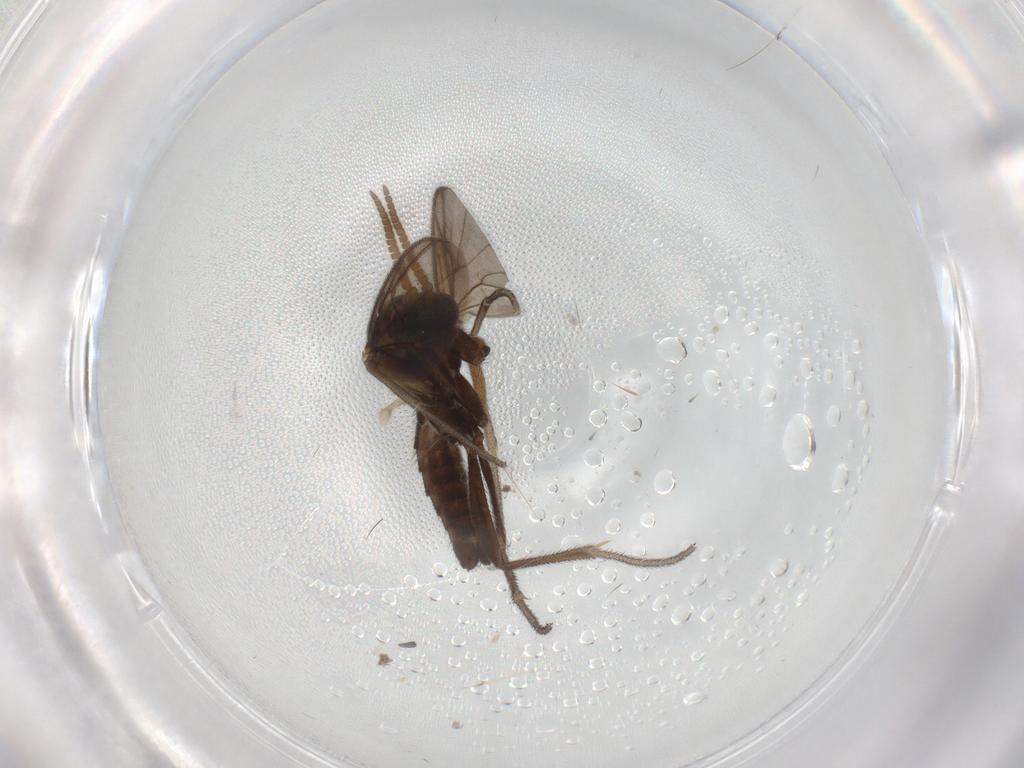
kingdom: Animalia
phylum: Arthropoda
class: Insecta
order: Diptera
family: Mycetophilidae
